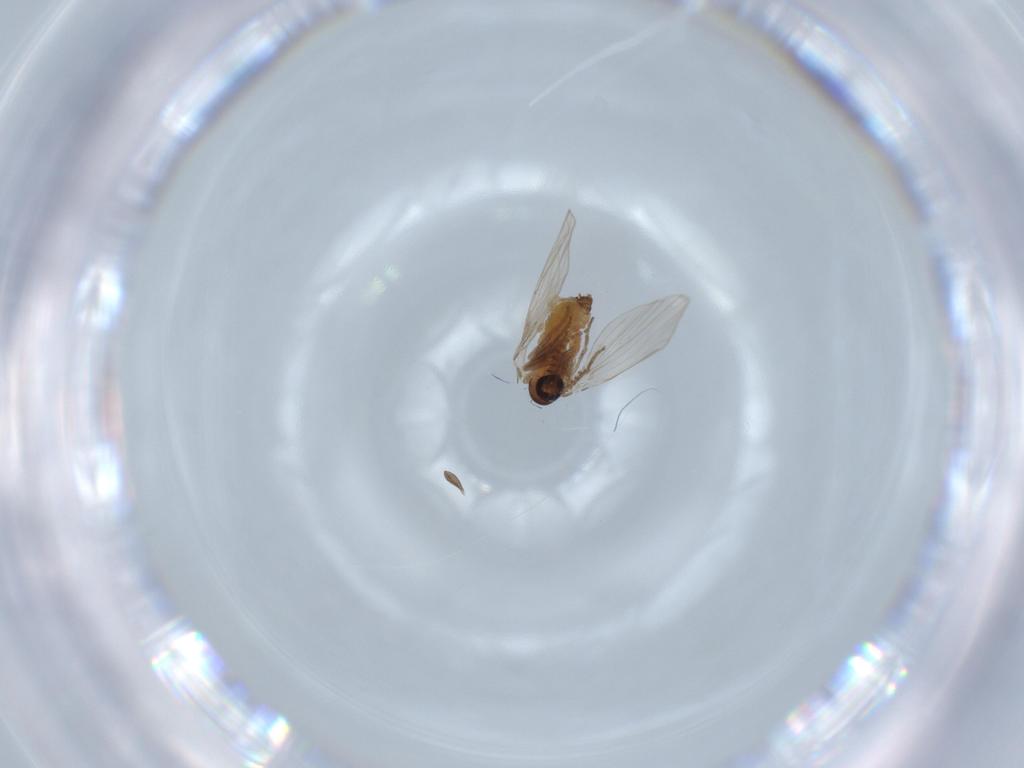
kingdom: Animalia
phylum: Arthropoda
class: Insecta
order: Diptera
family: Psychodidae
